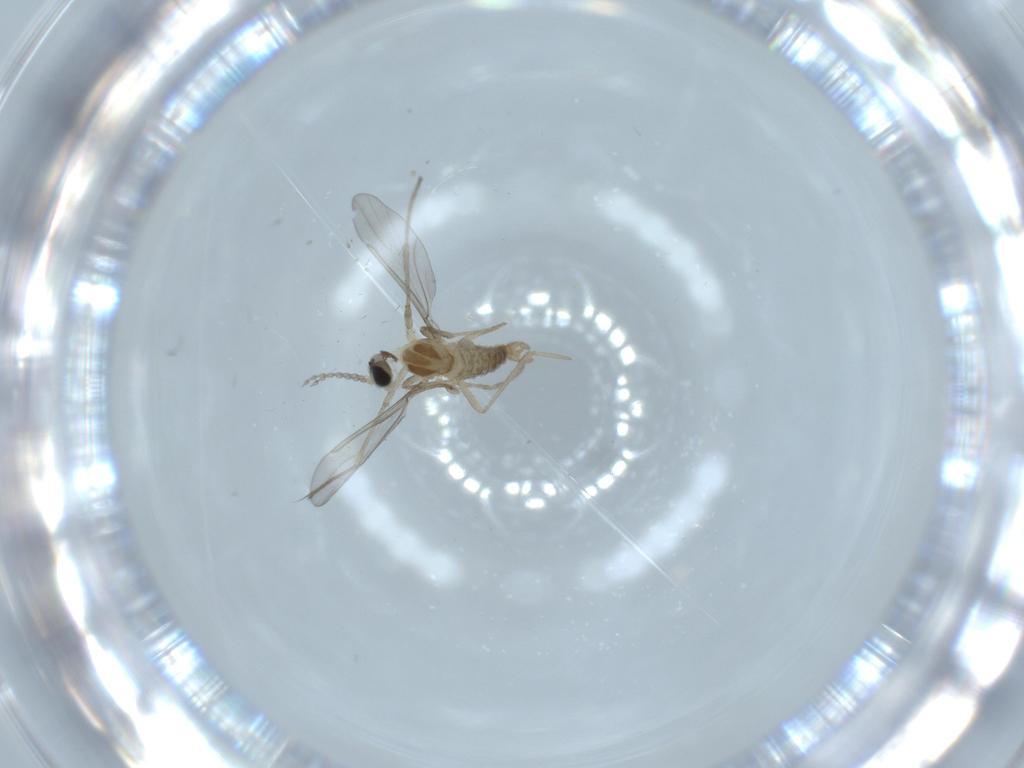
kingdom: Animalia
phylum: Arthropoda
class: Insecta
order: Diptera
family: Cecidomyiidae
